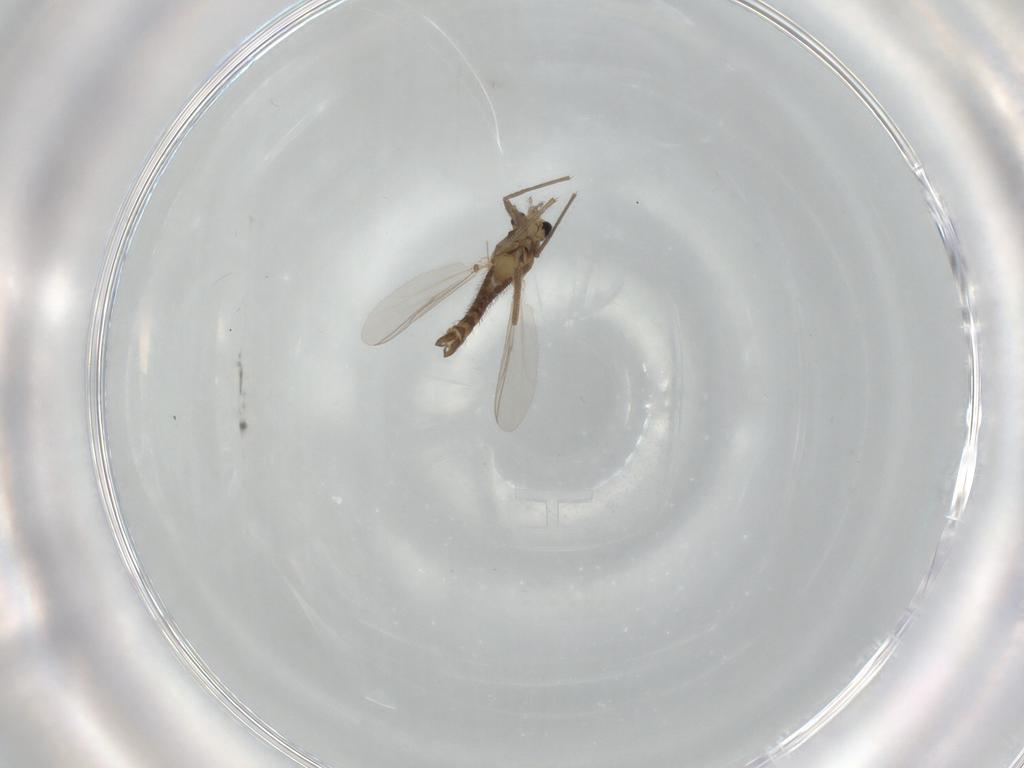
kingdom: Animalia
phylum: Arthropoda
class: Insecta
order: Diptera
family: Chironomidae
